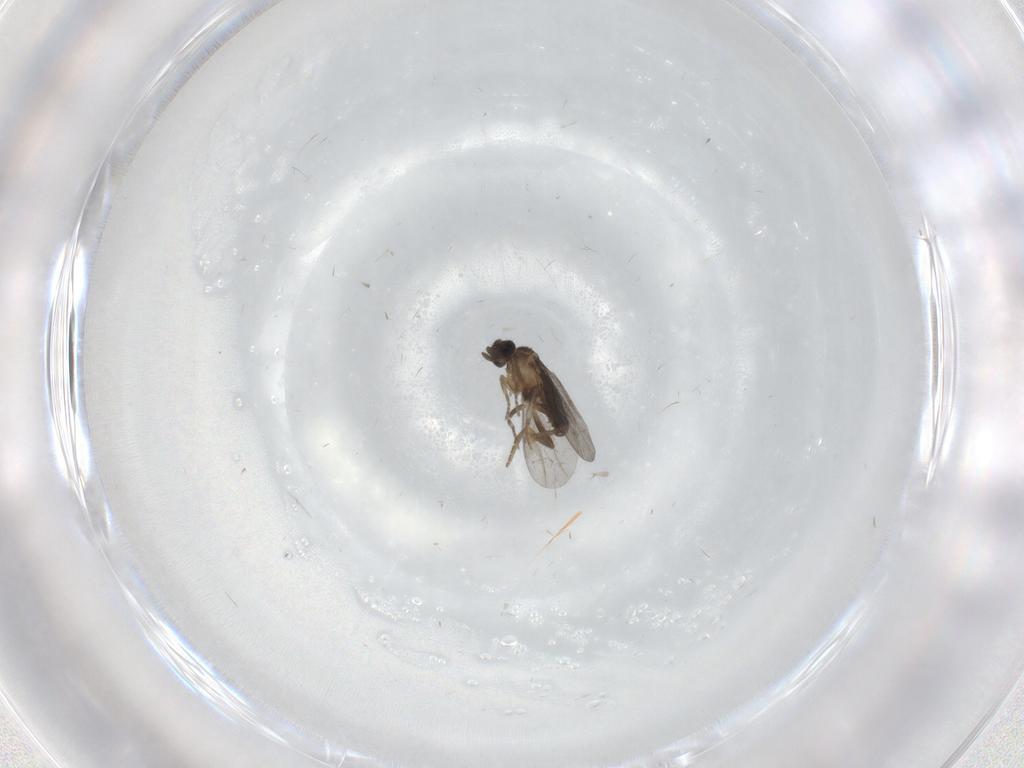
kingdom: Animalia
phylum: Arthropoda
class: Insecta
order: Diptera
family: Cecidomyiidae
